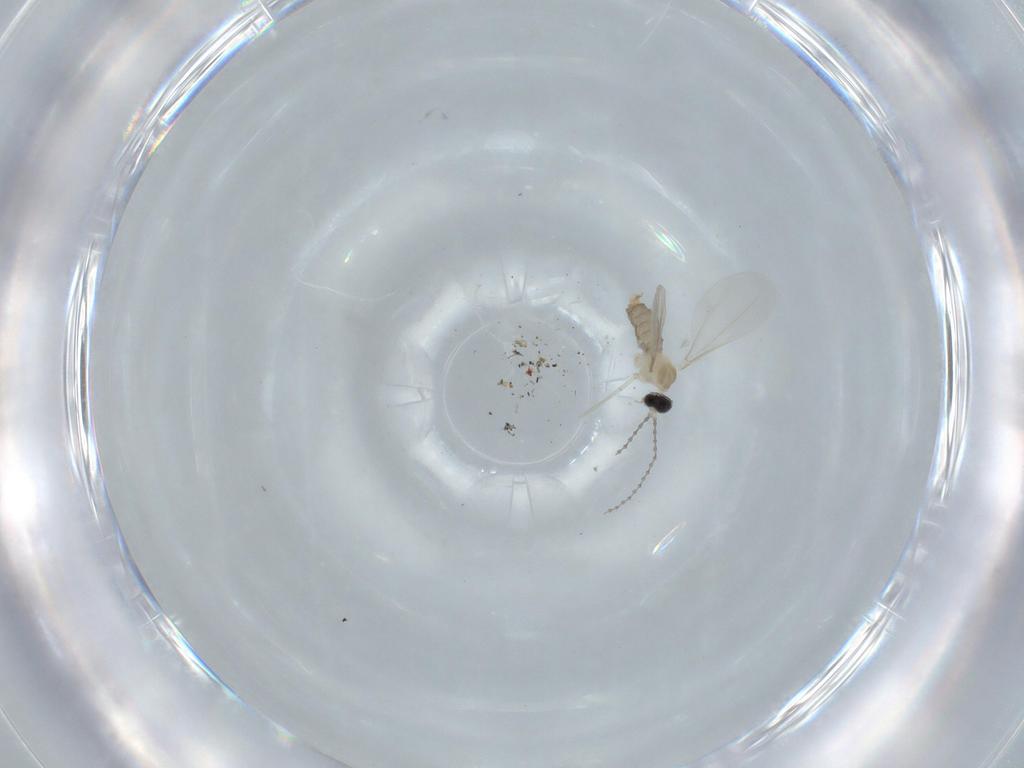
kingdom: Animalia
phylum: Arthropoda
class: Insecta
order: Diptera
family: Cecidomyiidae
